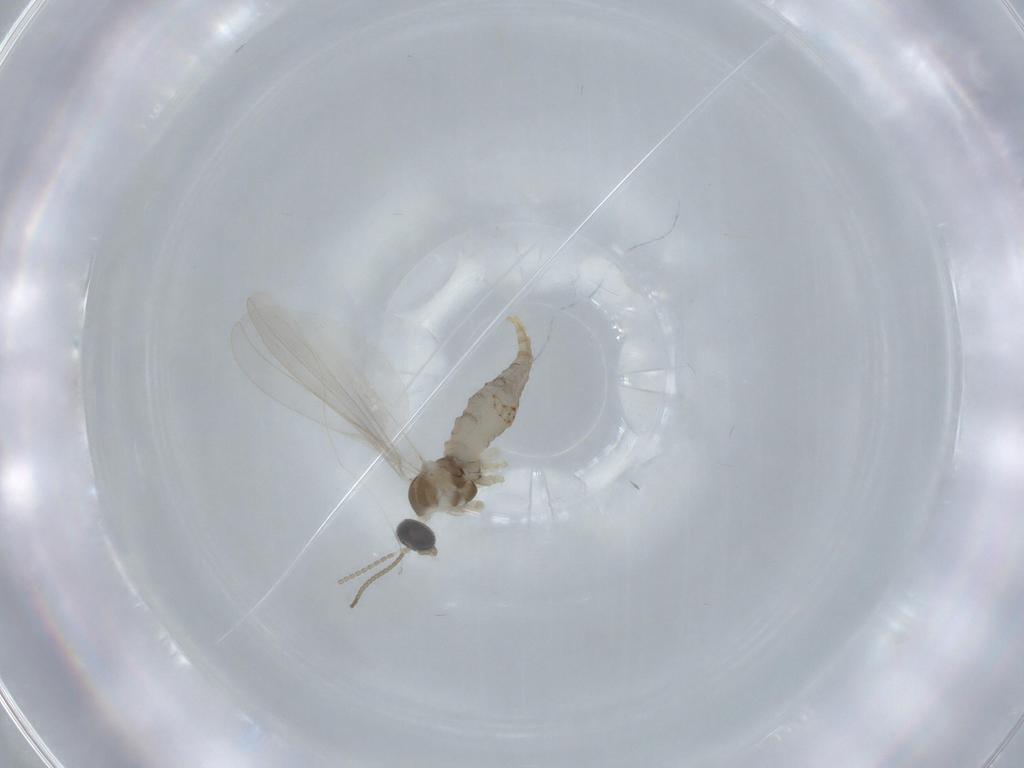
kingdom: Animalia
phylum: Arthropoda
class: Insecta
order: Diptera
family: Cecidomyiidae
